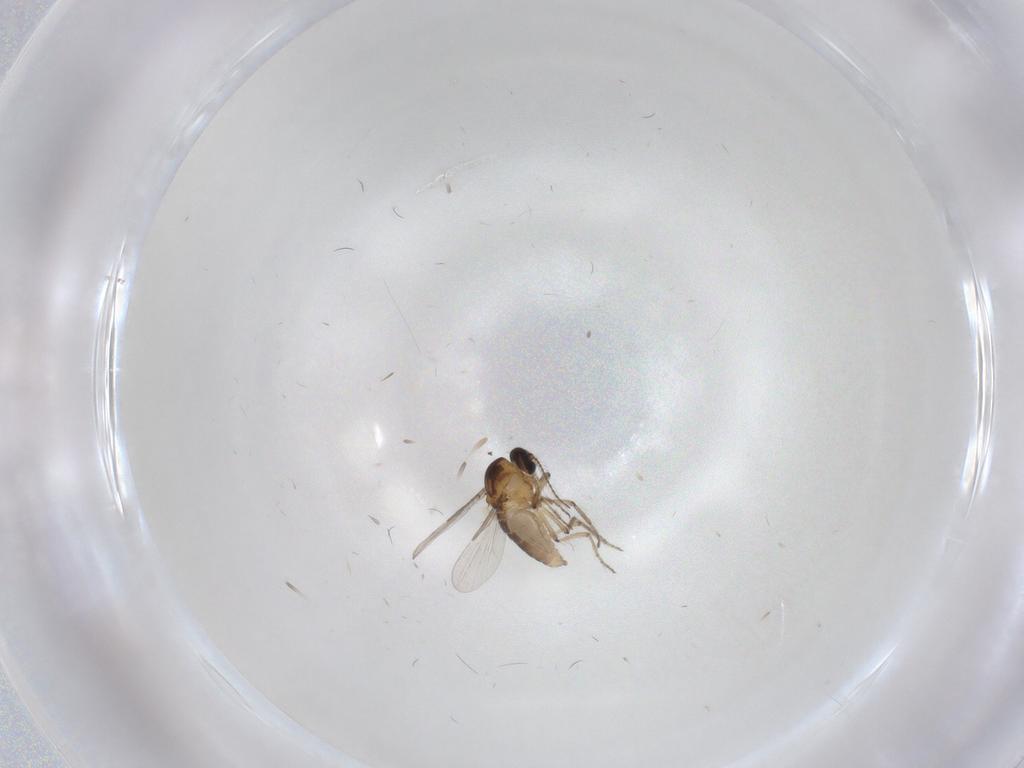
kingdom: Animalia
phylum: Arthropoda
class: Insecta
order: Diptera
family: Ceratopogonidae
